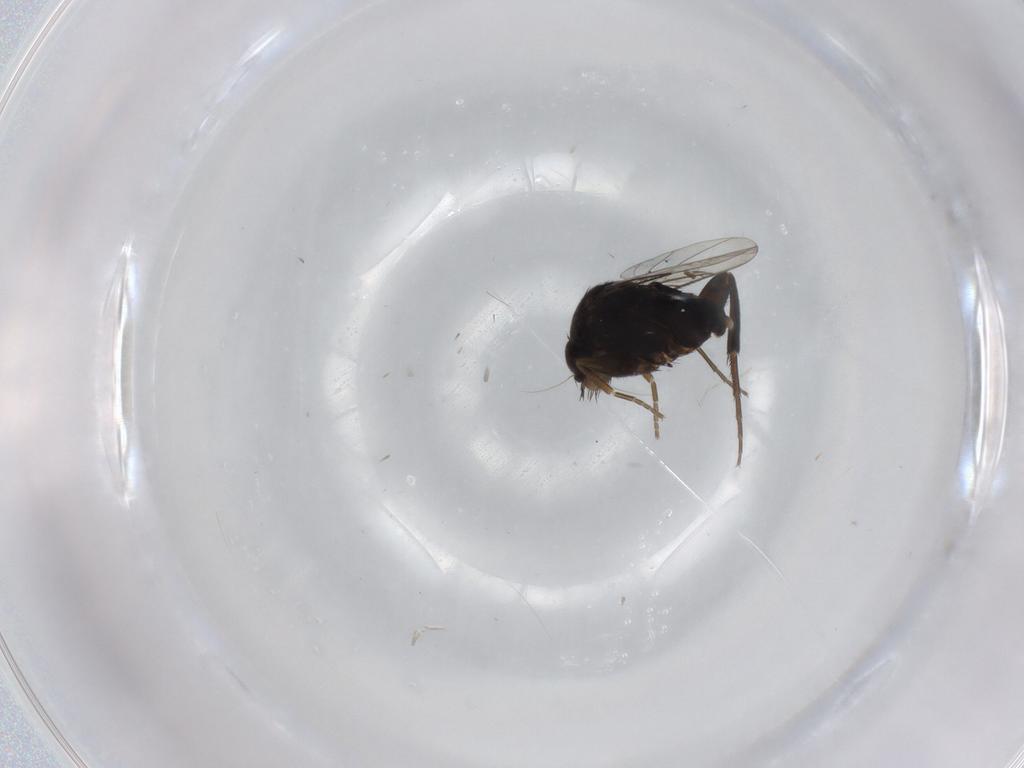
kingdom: Animalia
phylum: Arthropoda
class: Insecta
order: Diptera
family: Phoridae
